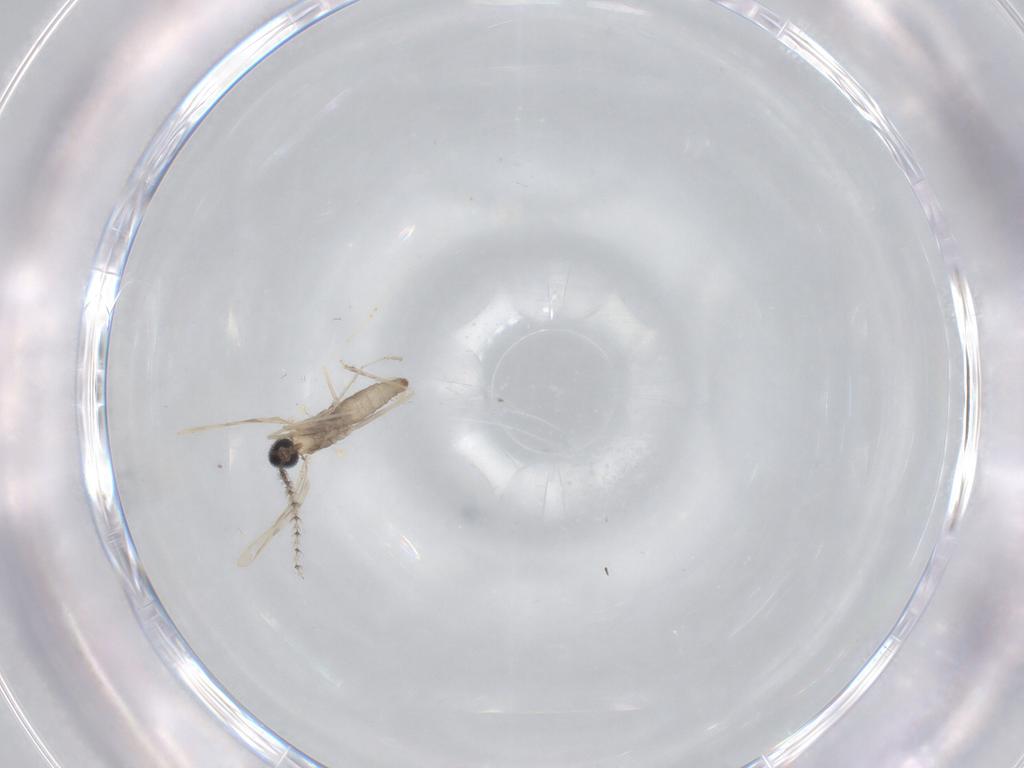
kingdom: Animalia
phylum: Arthropoda
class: Insecta
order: Diptera
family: Cecidomyiidae
